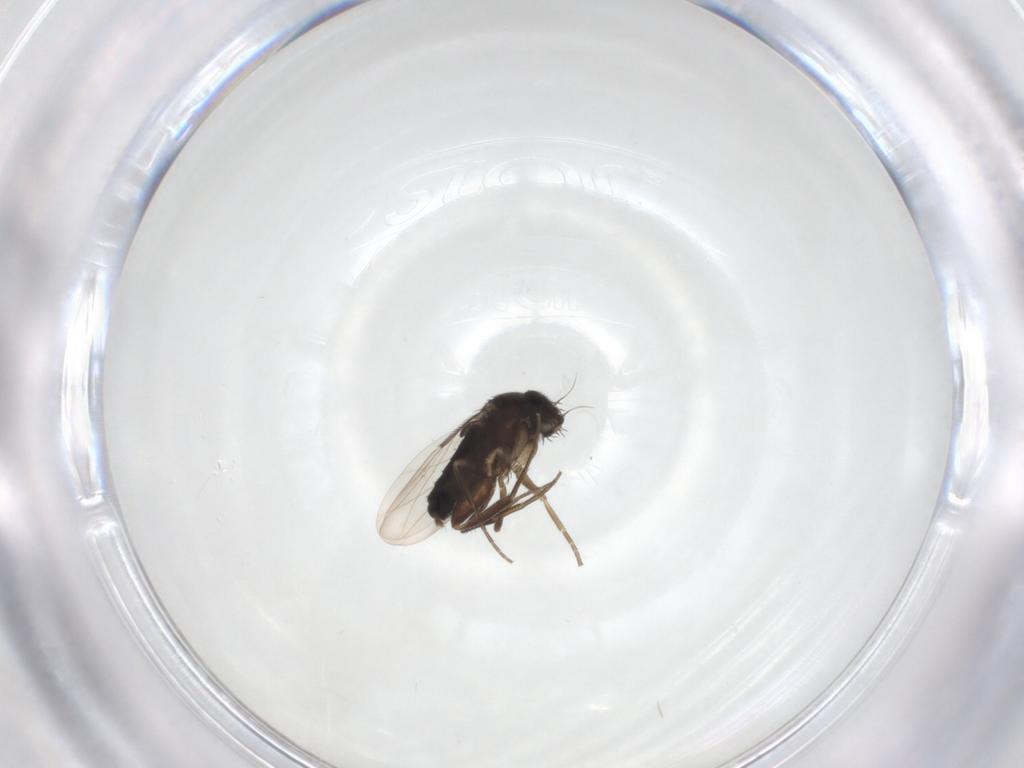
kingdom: Animalia
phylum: Arthropoda
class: Insecta
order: Diptera
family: Phoridae
